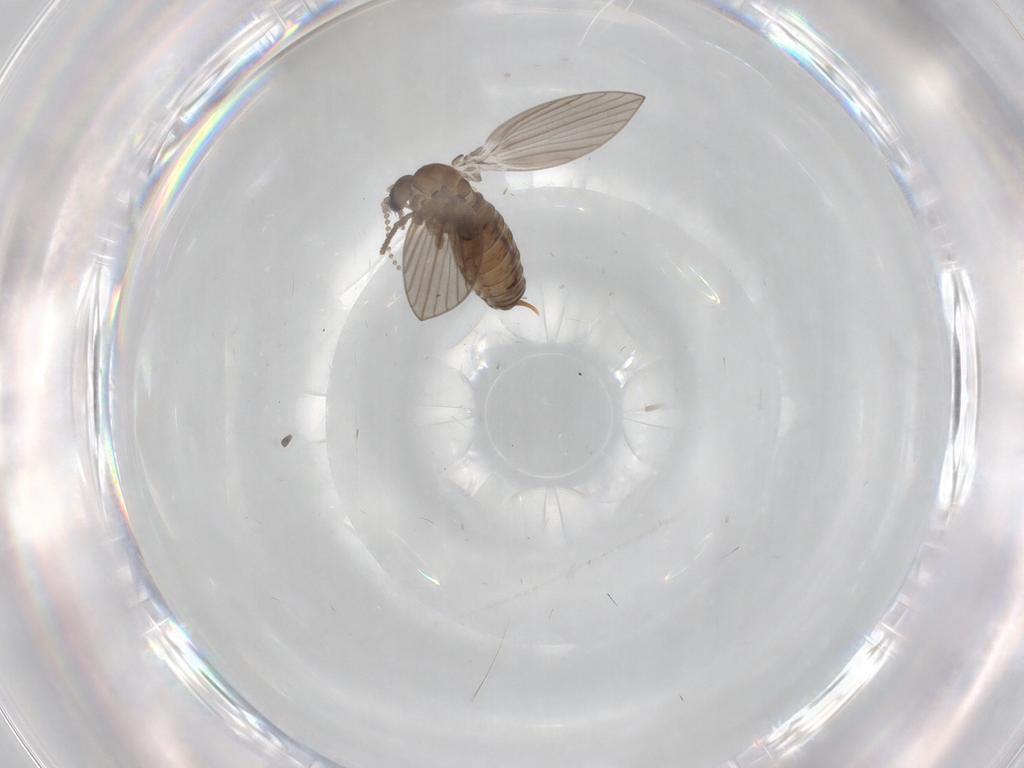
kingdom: Animalia
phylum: Arthropoda
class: Insecta
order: Diptera
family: Psychodidae
